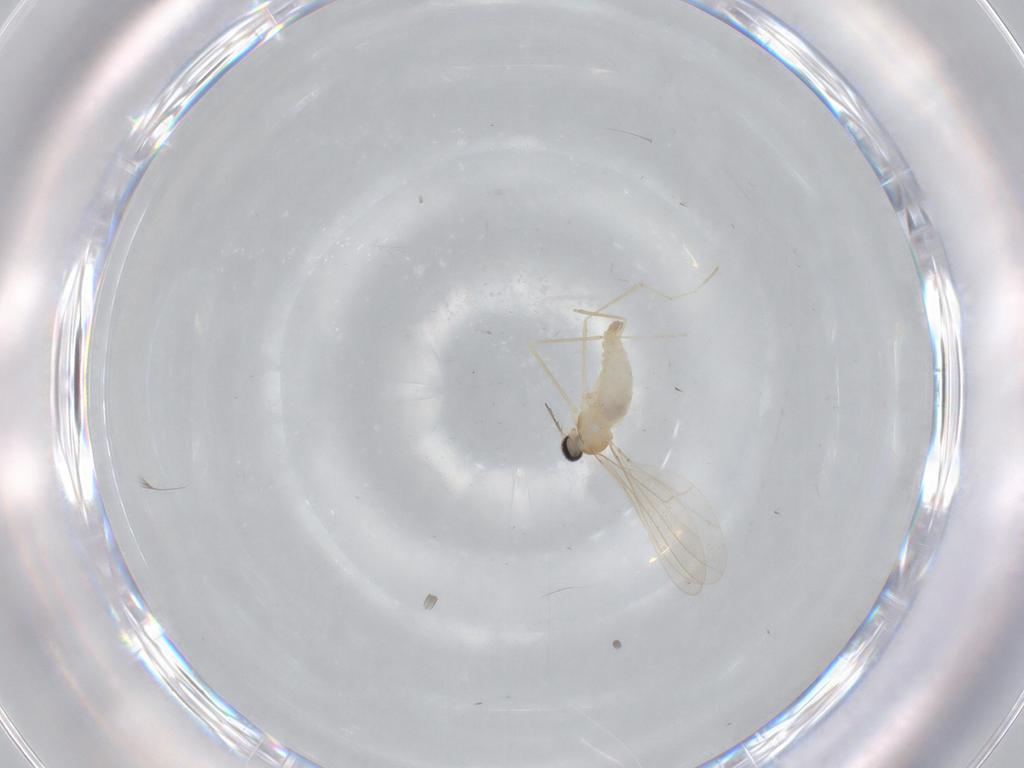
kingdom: Animalia
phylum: Arthropoda
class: Insecta
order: Diptera
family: Cecidomyiidae
